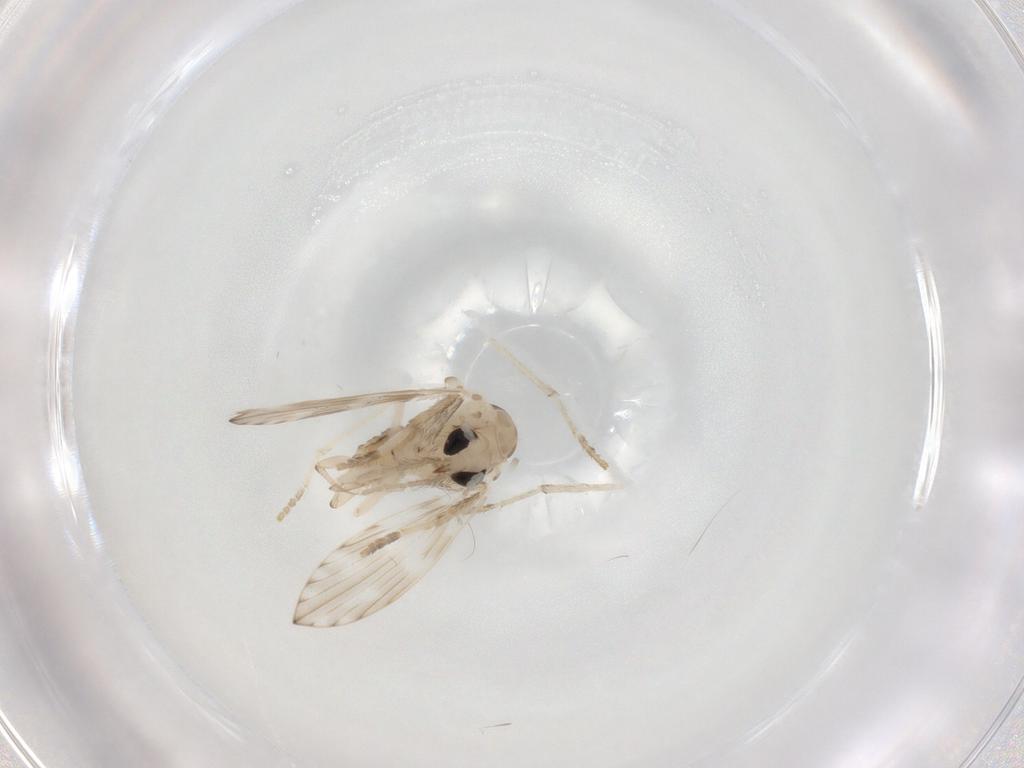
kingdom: Animalia
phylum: Arthropoda
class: Insecta
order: Diptera
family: Psychodidae
